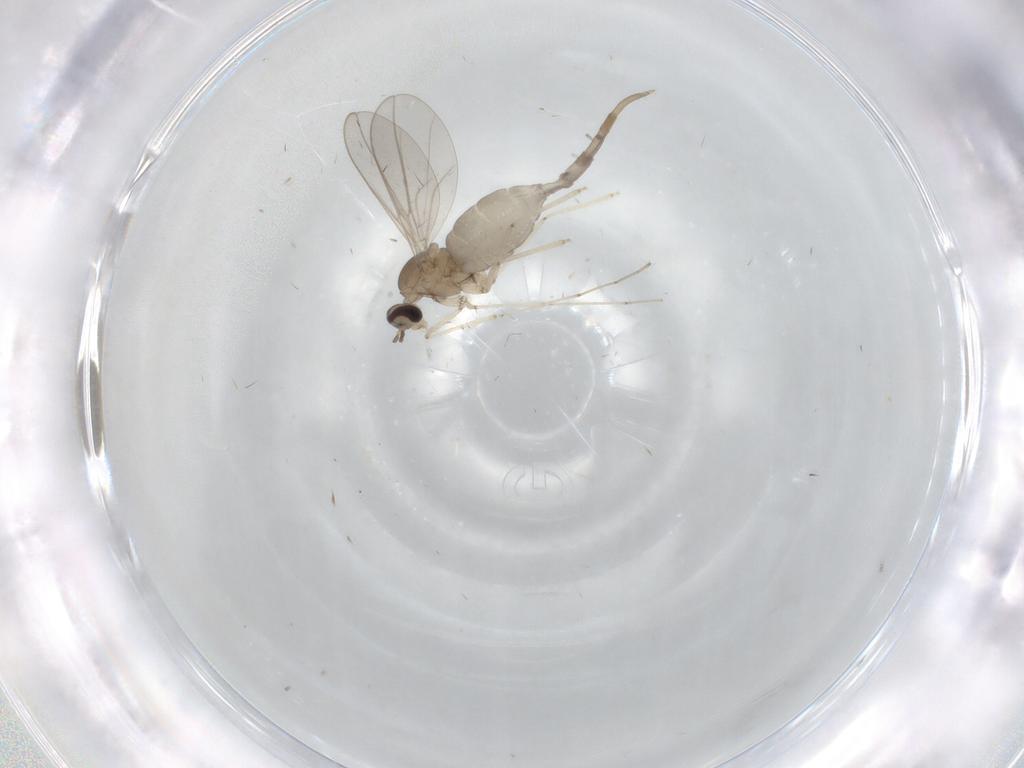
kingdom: Animalia
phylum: Arthropoda
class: Insecta
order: Diptera
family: Cecidomyiidae
